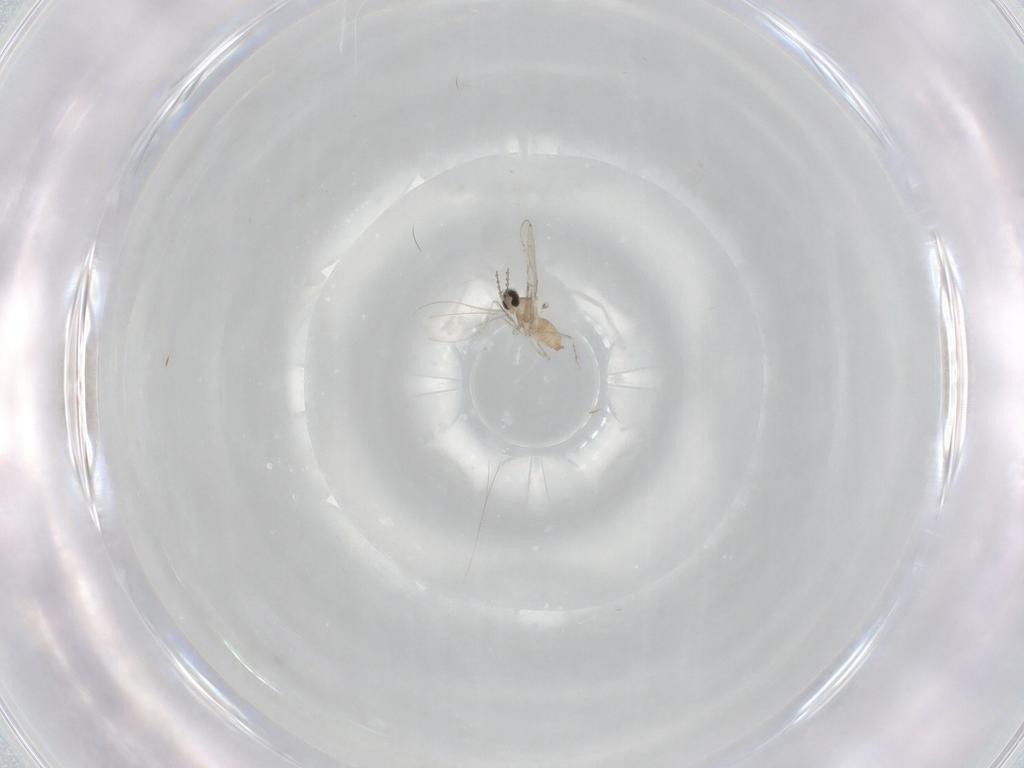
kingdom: Animalia
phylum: Arthropoda
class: Insecta
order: Diptera
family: Cecidomyiidae
